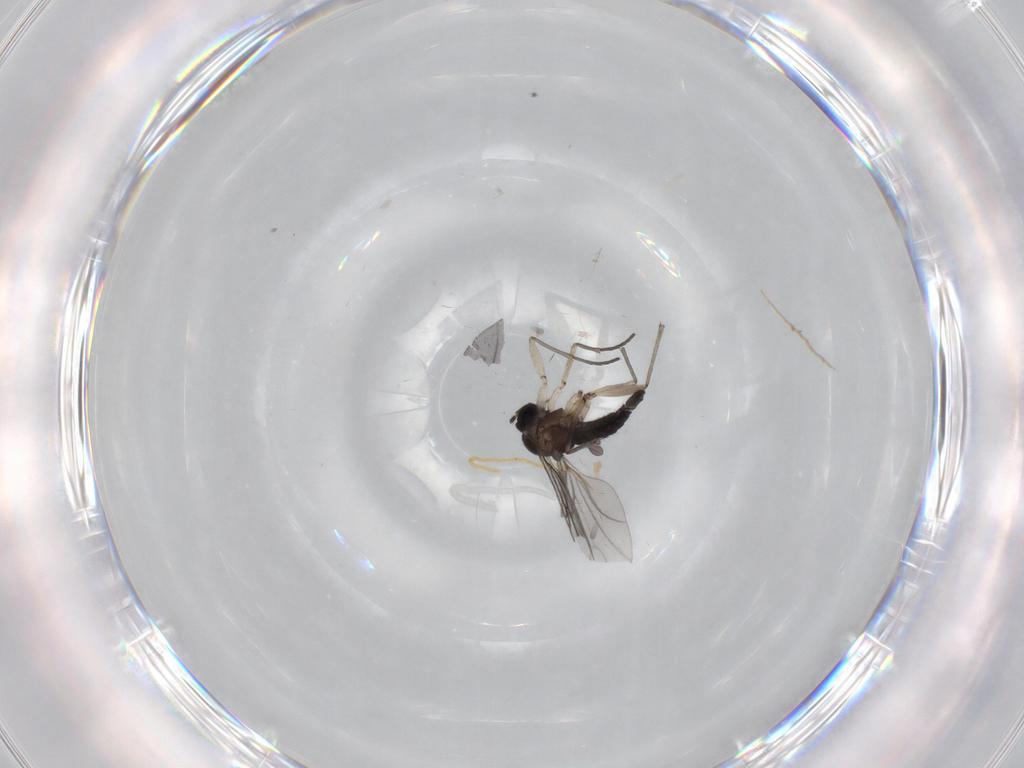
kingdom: Animalia
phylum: Arthropoda
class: Insecta
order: Diptera
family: Sciaridae
